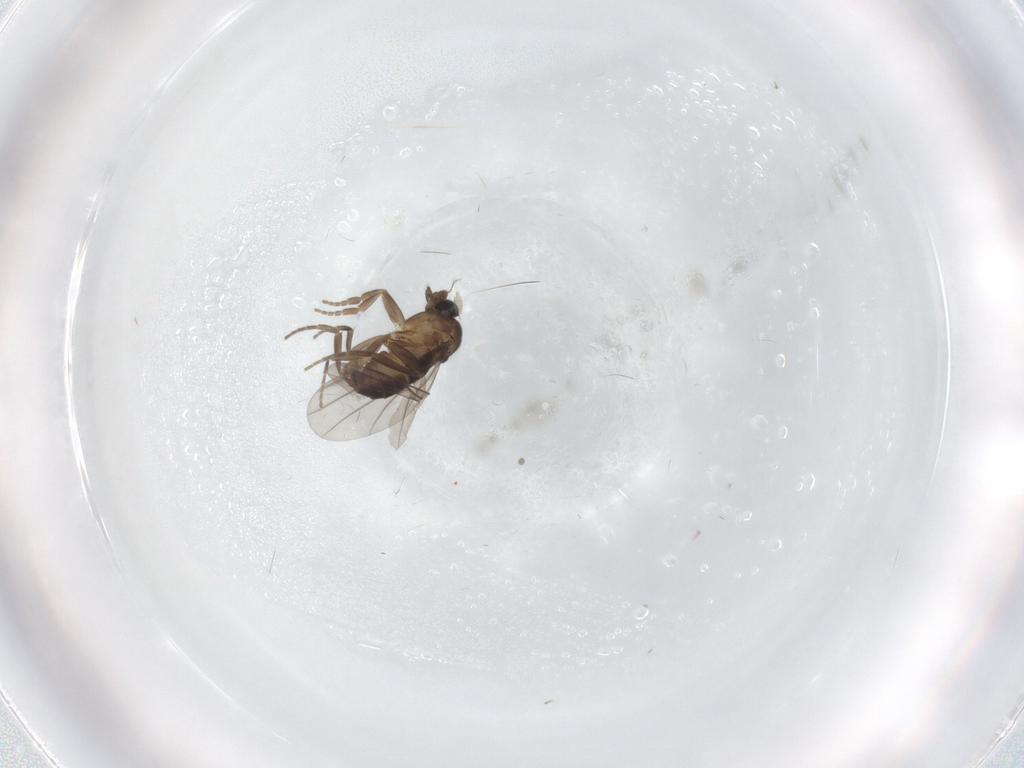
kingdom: Animalia
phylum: Arthropoda
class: Insecta
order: Diptera
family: Phoridae
